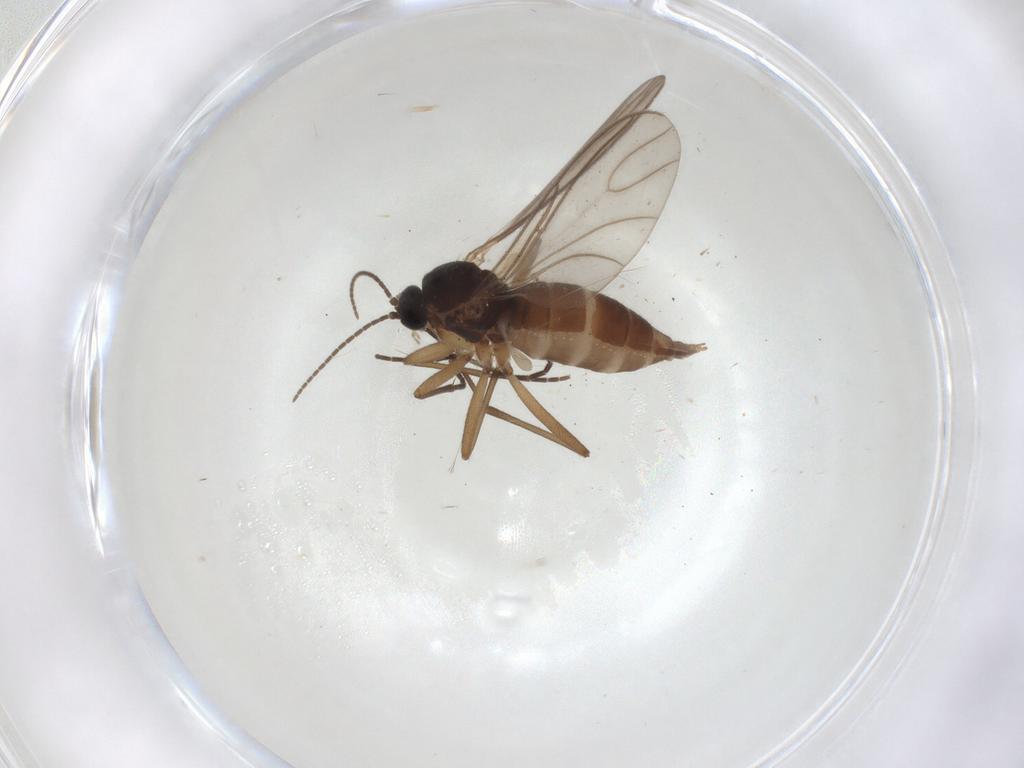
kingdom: Animalia
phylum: Arthropoda
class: Insecta
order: Diptera
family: Sciaridae
